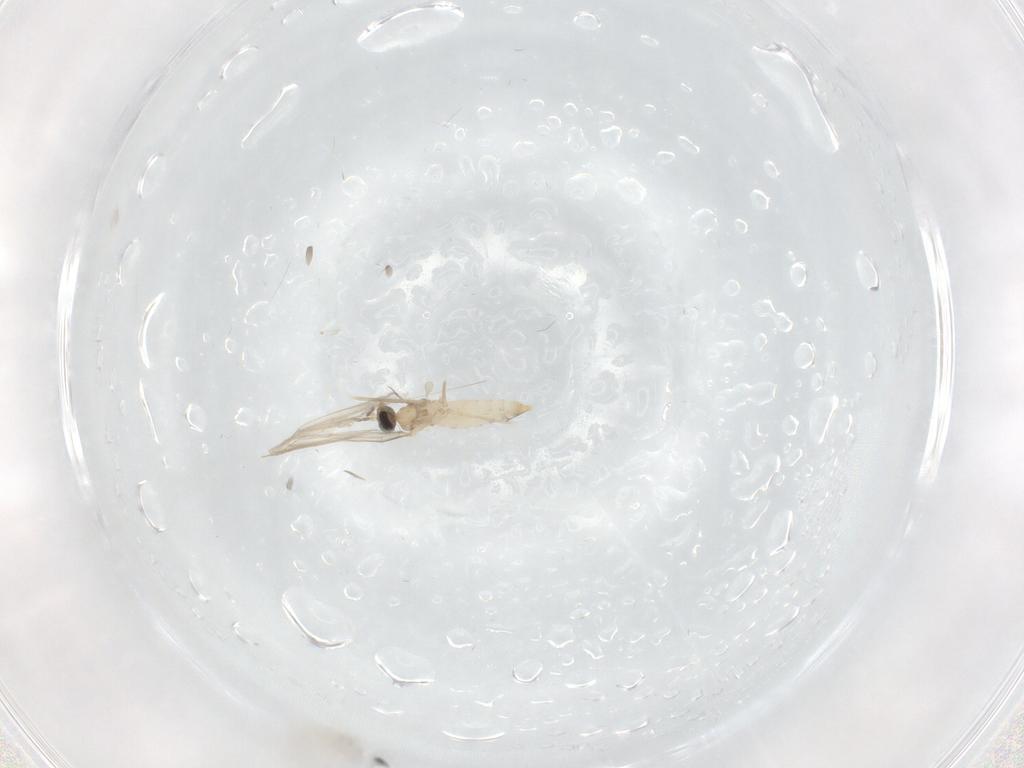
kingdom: Animalia
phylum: Arthropoda
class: Insecta
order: Diptera
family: Cecidomyiidae
